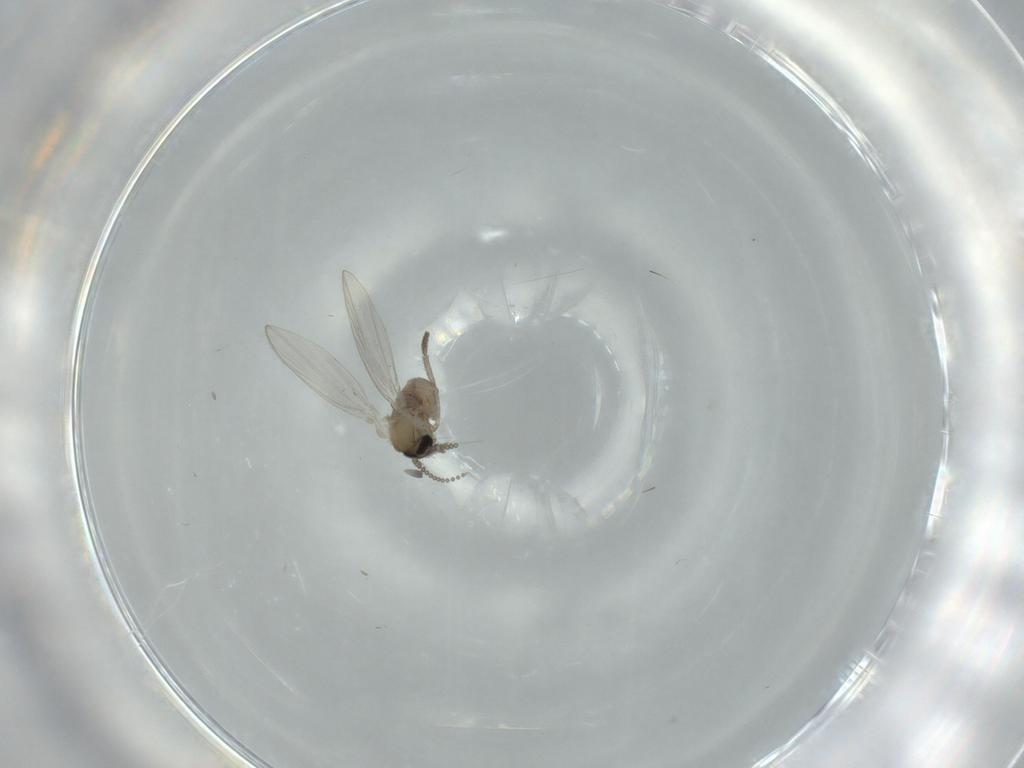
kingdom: Animalia
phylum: Arthropoda
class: Insecta
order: Diptera
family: Psychodidae
